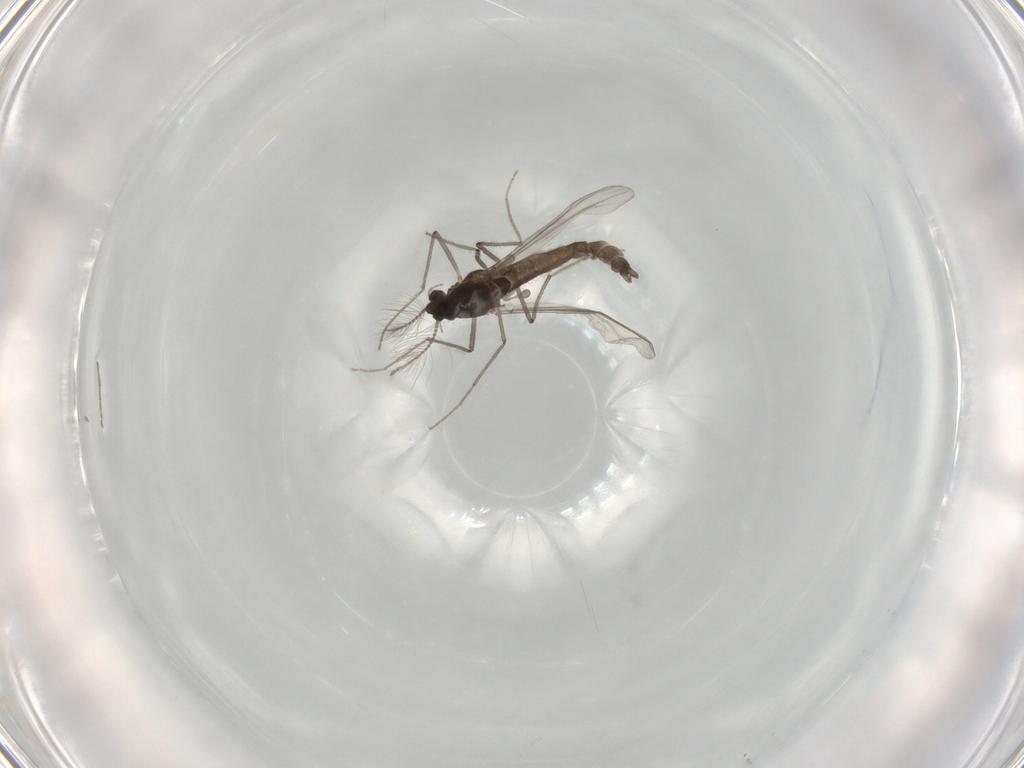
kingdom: Animalia
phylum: Arthropoda
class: Insecta
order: Diptera
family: Chironomidae
